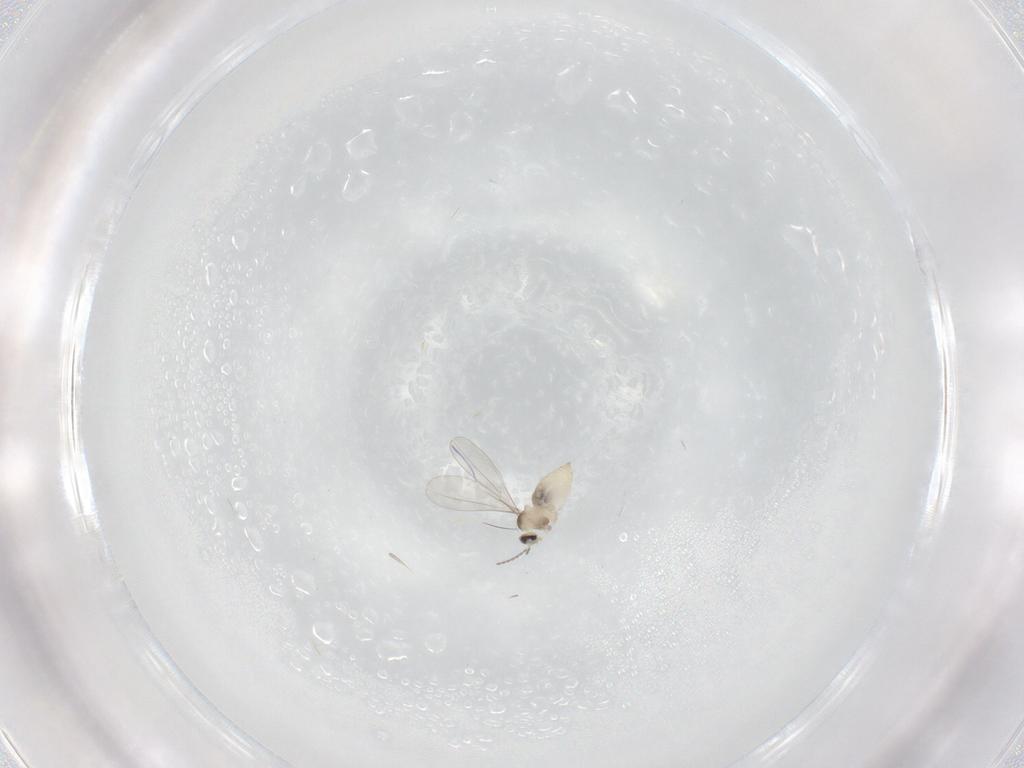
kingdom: Animalia
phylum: Arthropoda
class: Insecta
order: Diptera
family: Cecidomyiidae
